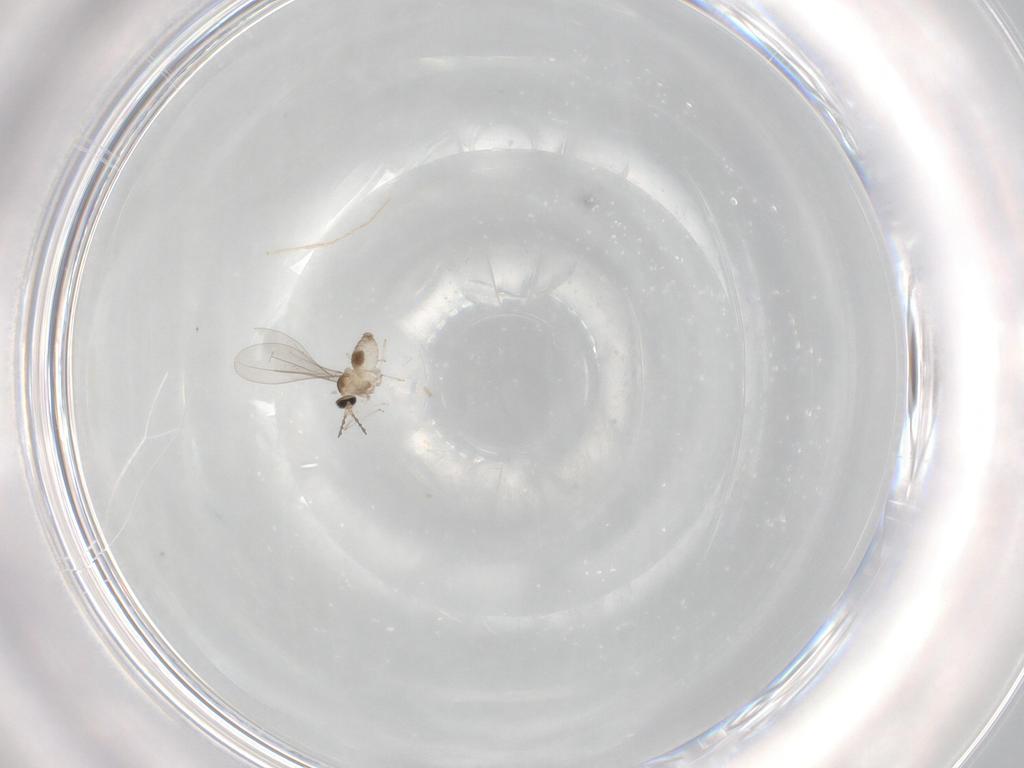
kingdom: Animalia
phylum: Arthropoda
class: Insecta
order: Diptera
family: Cecidomyiidae
